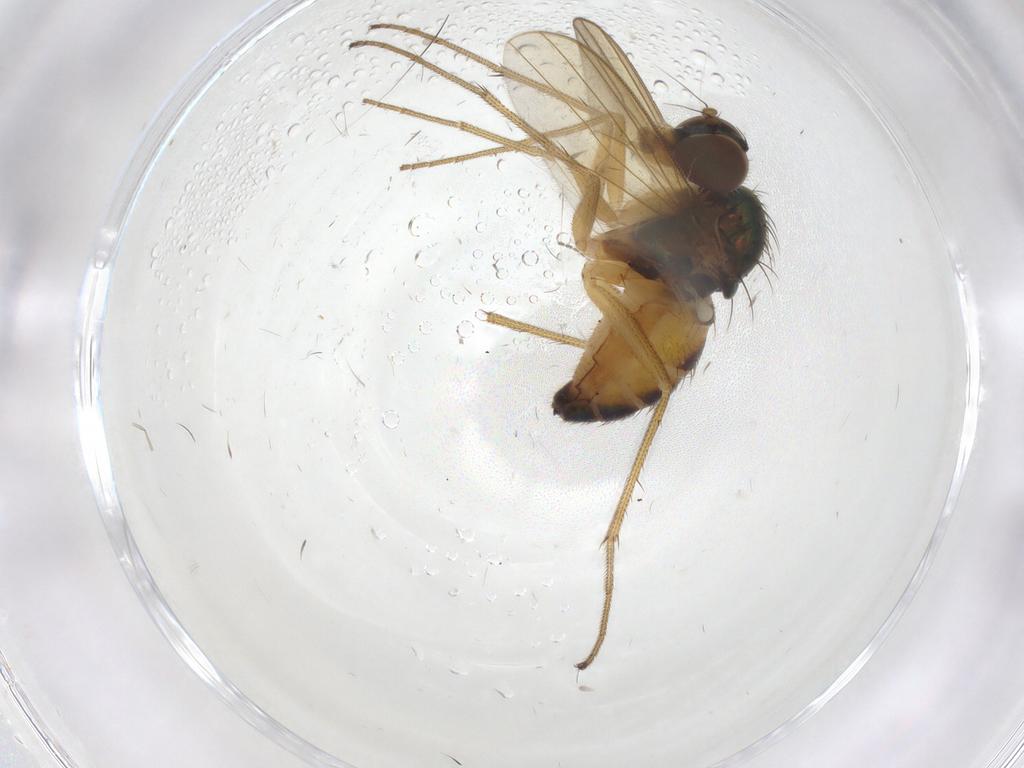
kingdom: Animalia
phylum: Arthropoda
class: Insecta
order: Diptera
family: Dolichopodidae
